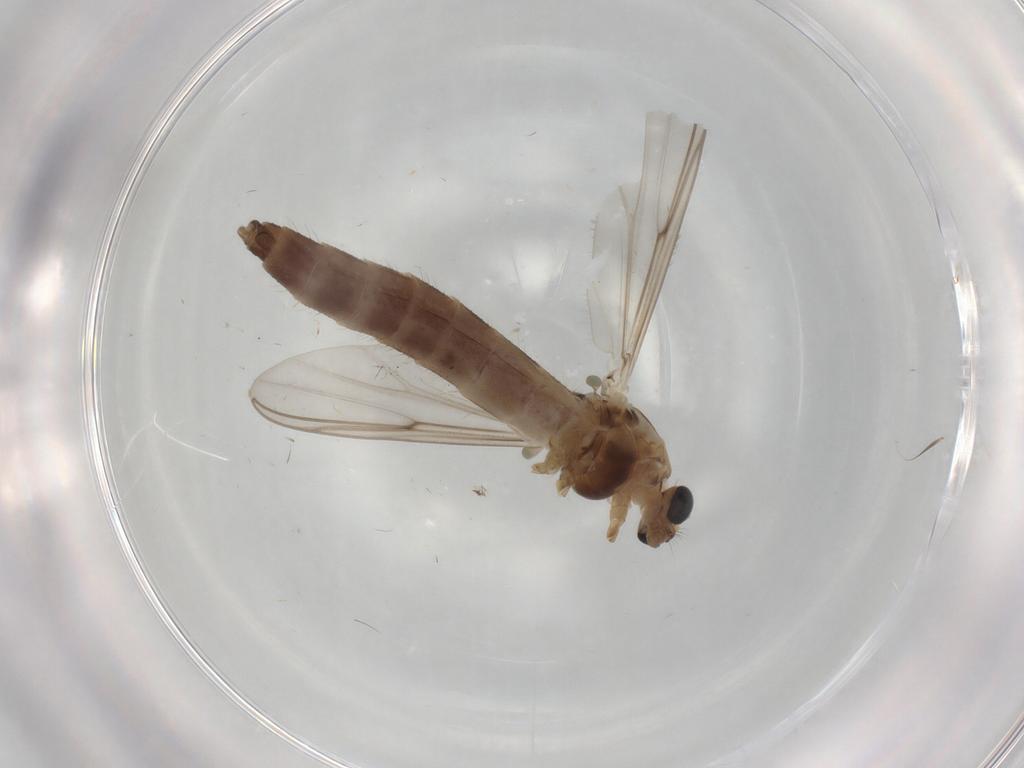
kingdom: Animalia
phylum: Arthropoda
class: Insecta
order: Diptera
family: Chironomidae
